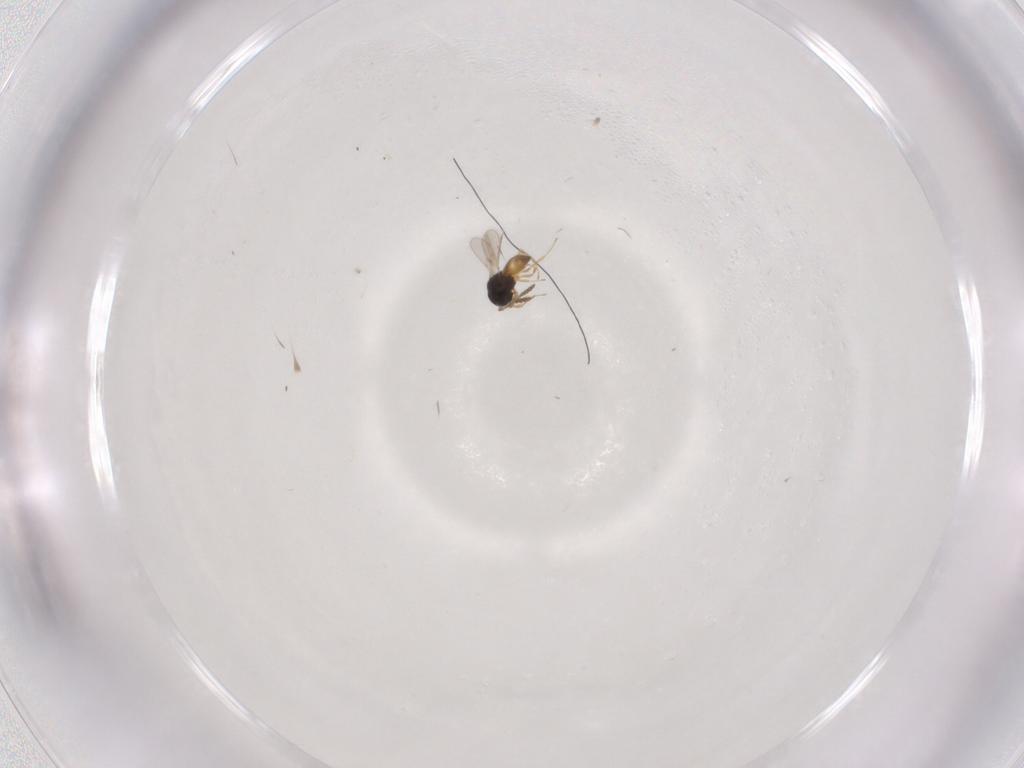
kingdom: Animalia
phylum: Arthropoda
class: Insecta
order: Hymenoptera
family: Scelionidae
